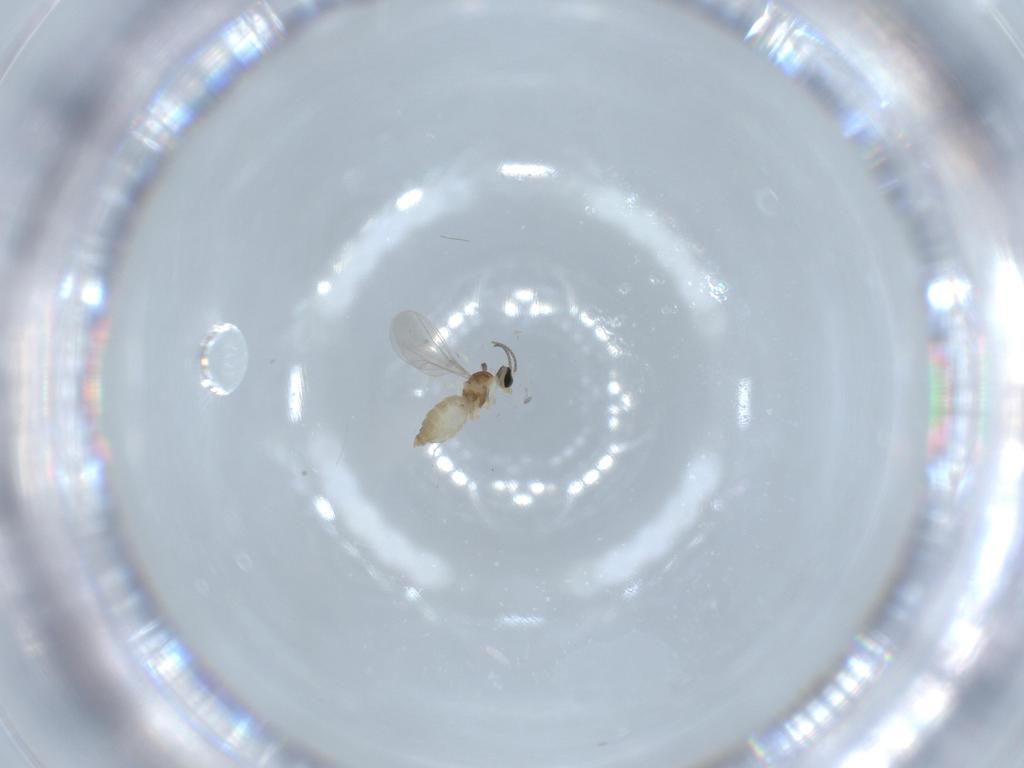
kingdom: Animalia
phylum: Arthropoda
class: Insecta
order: Diptera
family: Cecidomyiidae
